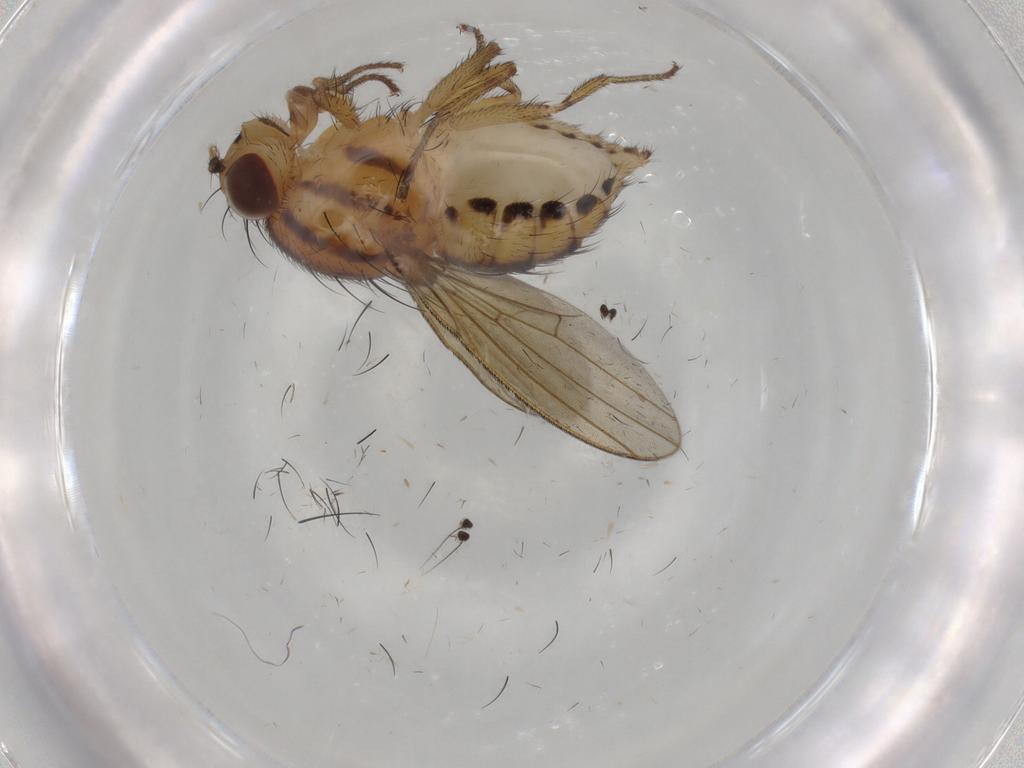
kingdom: Animalia
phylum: Arthropoda
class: Insecta
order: Diptera
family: Dolichopodidae
